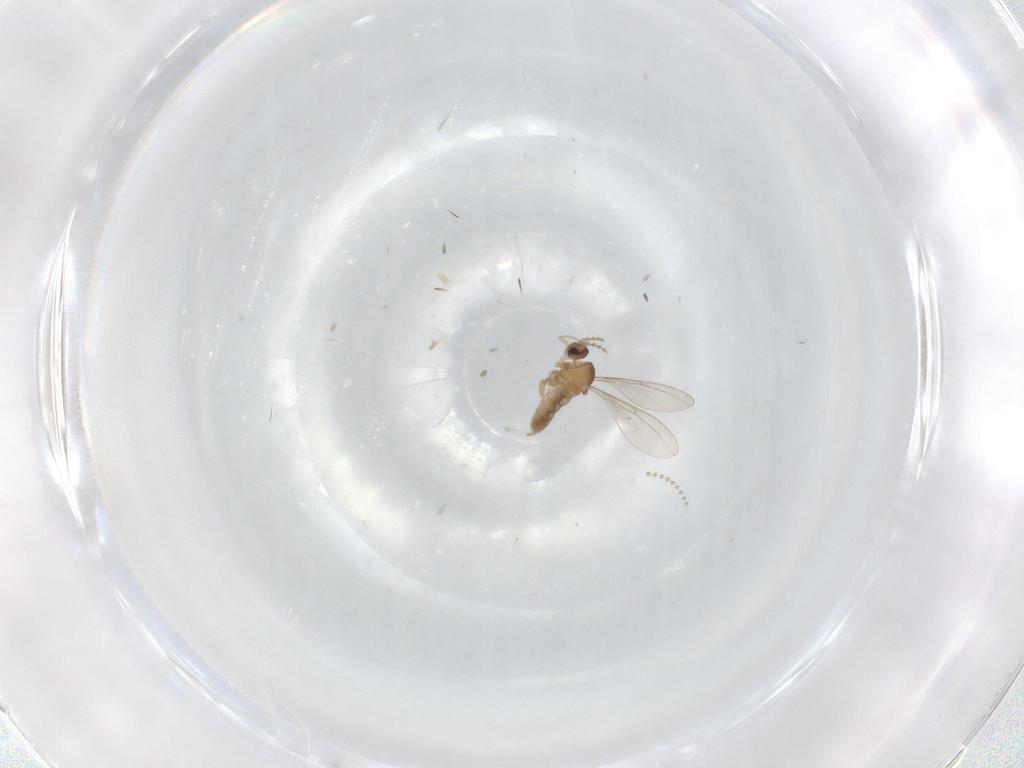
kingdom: Animalia
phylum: Arthropoda
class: Insecta
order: Diptera
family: Cecidomyiidae
